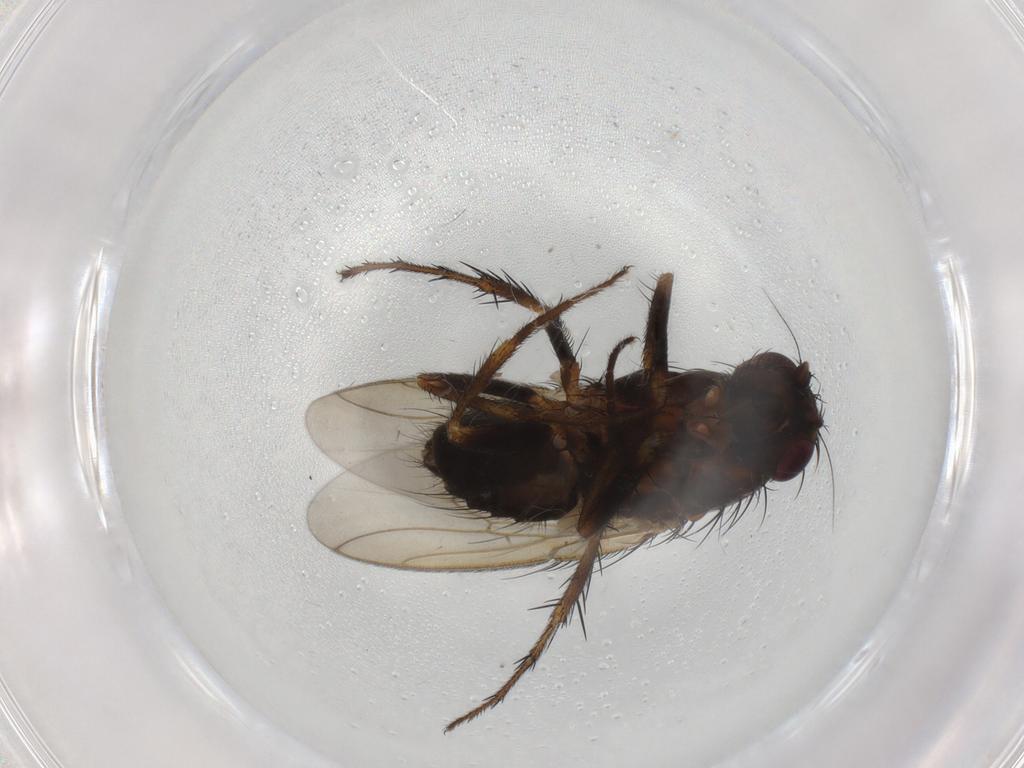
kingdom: Animalia
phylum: Arthropoda
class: Insecta
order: Diptera
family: Sphaeroceridae
